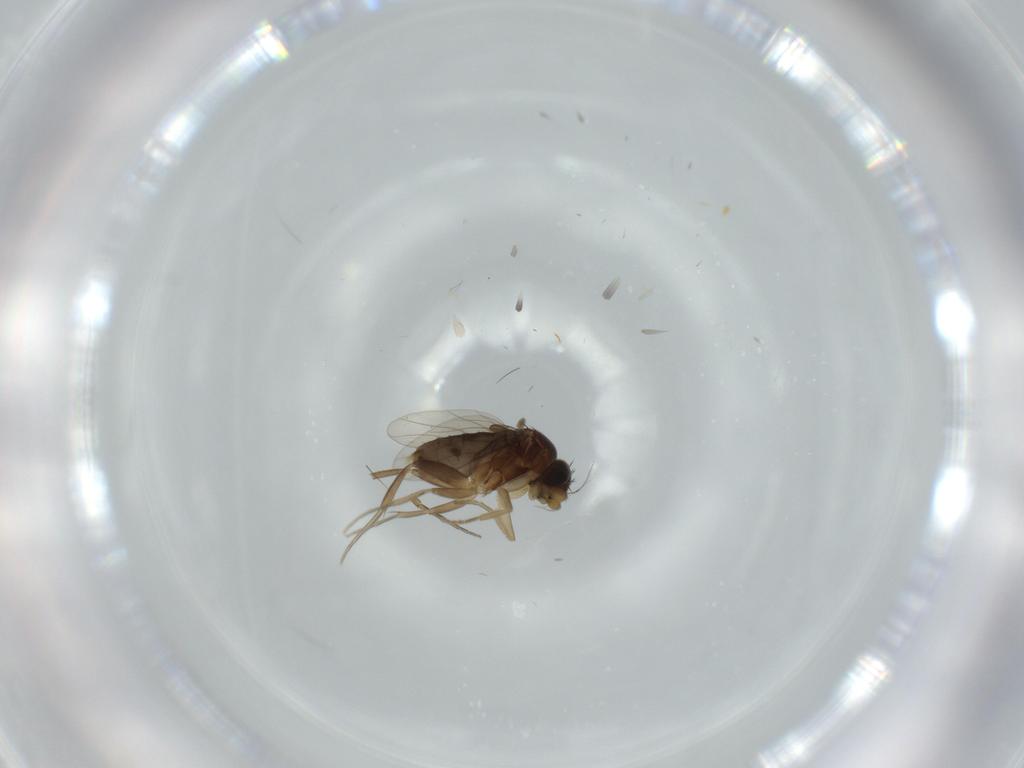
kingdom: Animalia
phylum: Arthropoda
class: Insecta
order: Diptera
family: Phoridae
